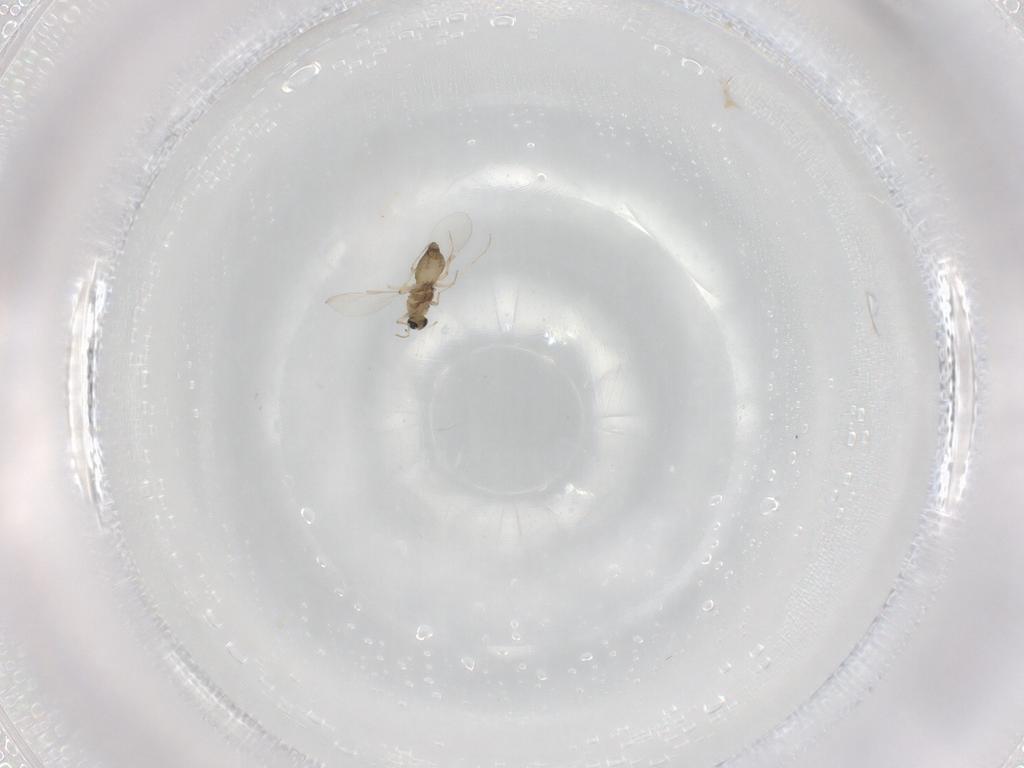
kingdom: Animalia
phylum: Arthropoda
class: Insecta
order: Diptera
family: Chironomidae
